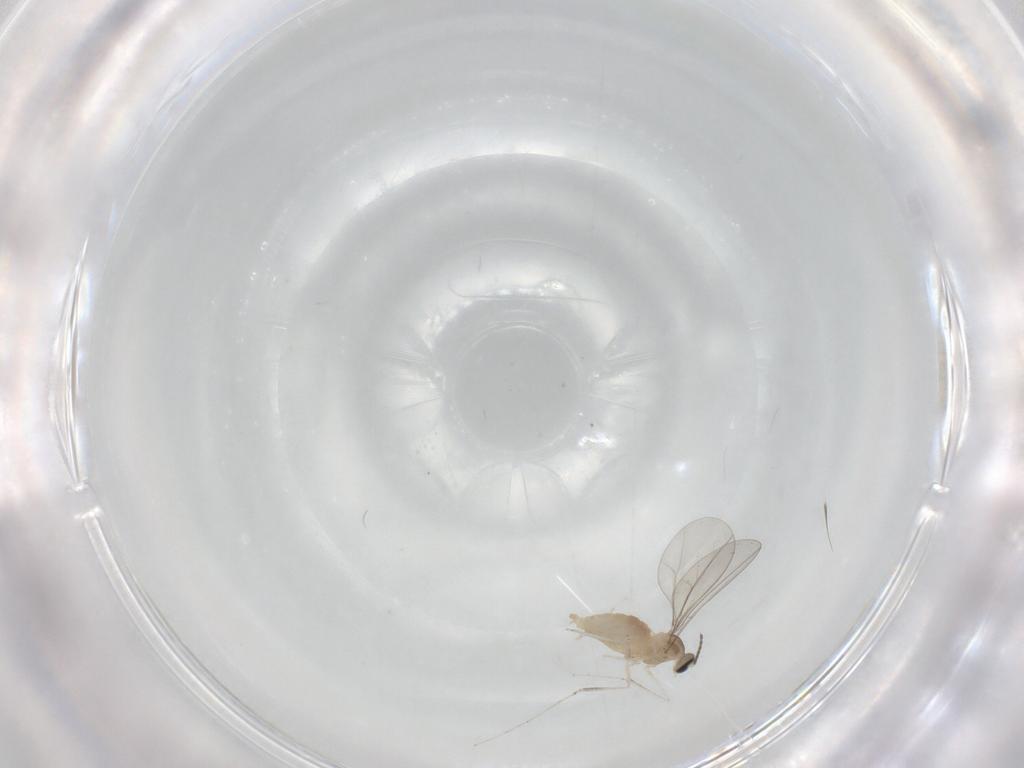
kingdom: Animalia
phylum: Arthropoda
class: Insecta
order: Diptera
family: Cecidomyiidae
